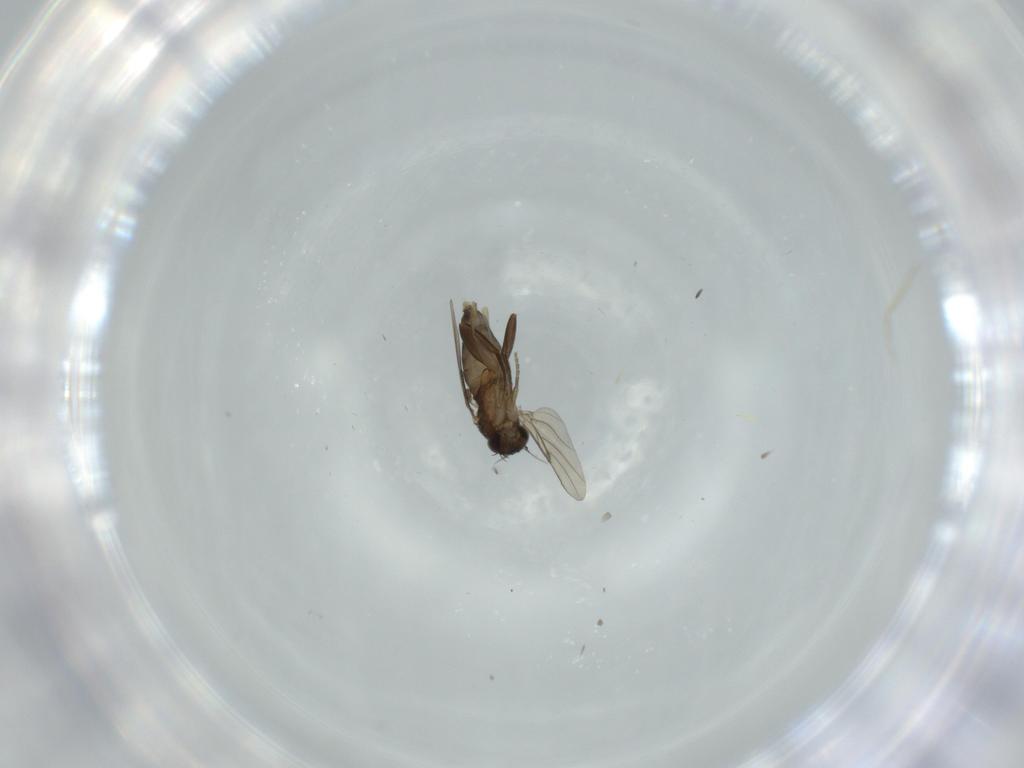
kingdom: Animalia
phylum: Arthropoda
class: Insecta
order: Diptera
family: Phoridae
